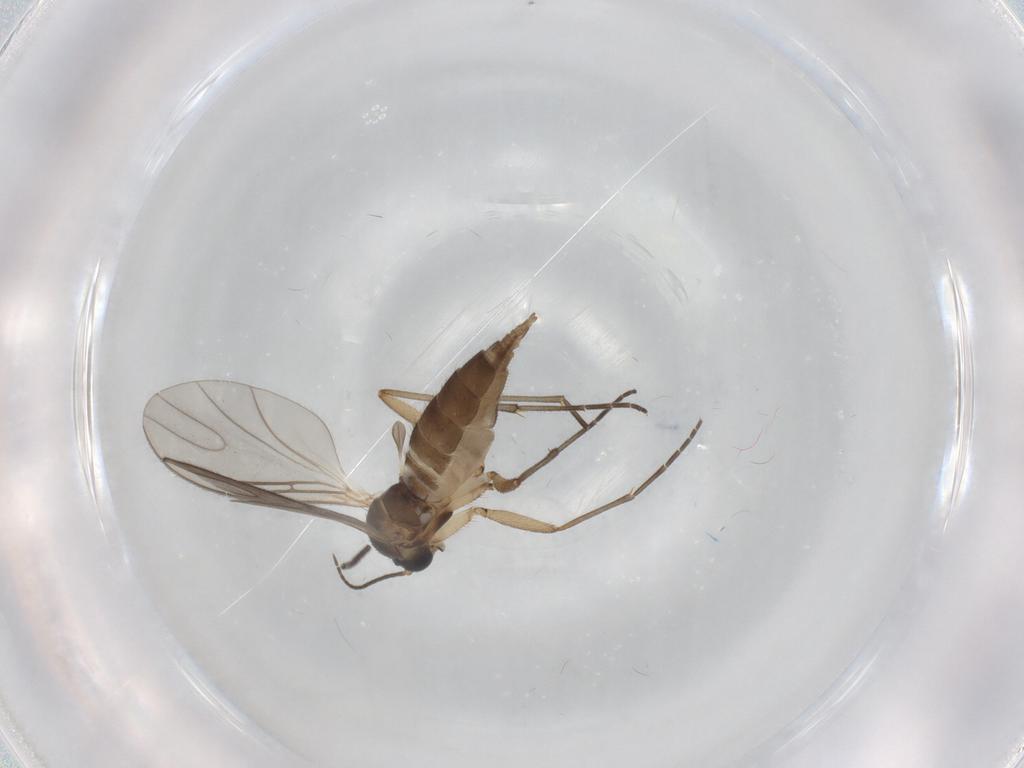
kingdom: Animalia
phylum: Arthropoda
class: Insecta
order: Diptera
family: Sciaridae
